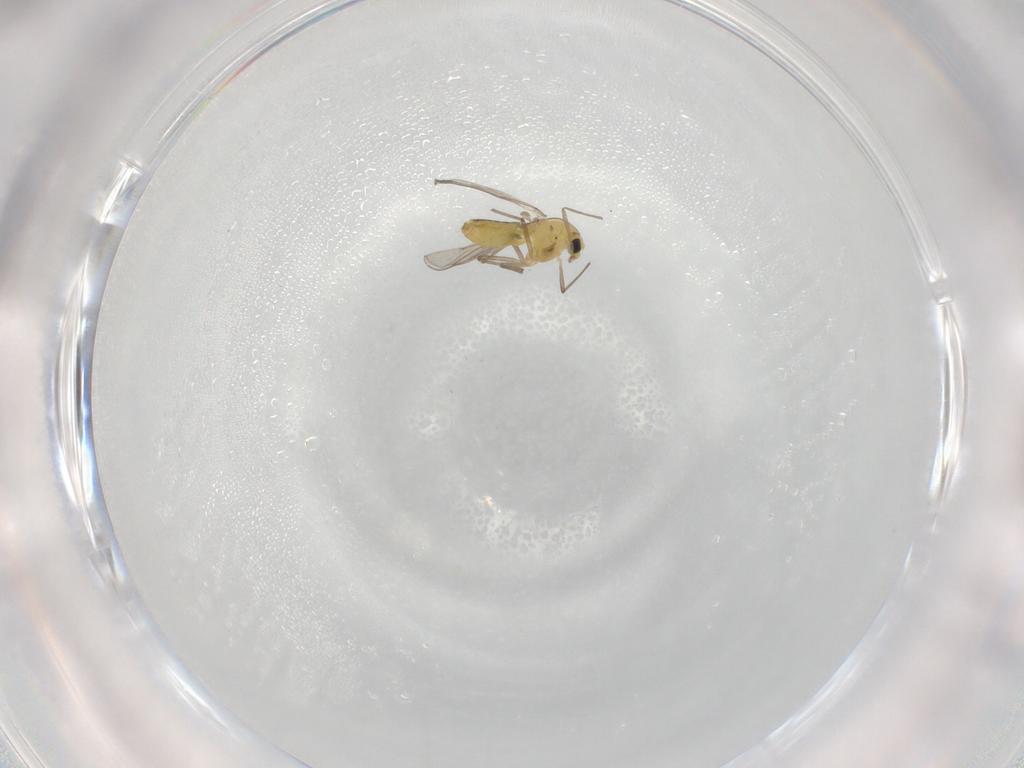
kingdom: Animalia
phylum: Arthropoda
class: Insecta
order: Diptera
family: Chironomidae
